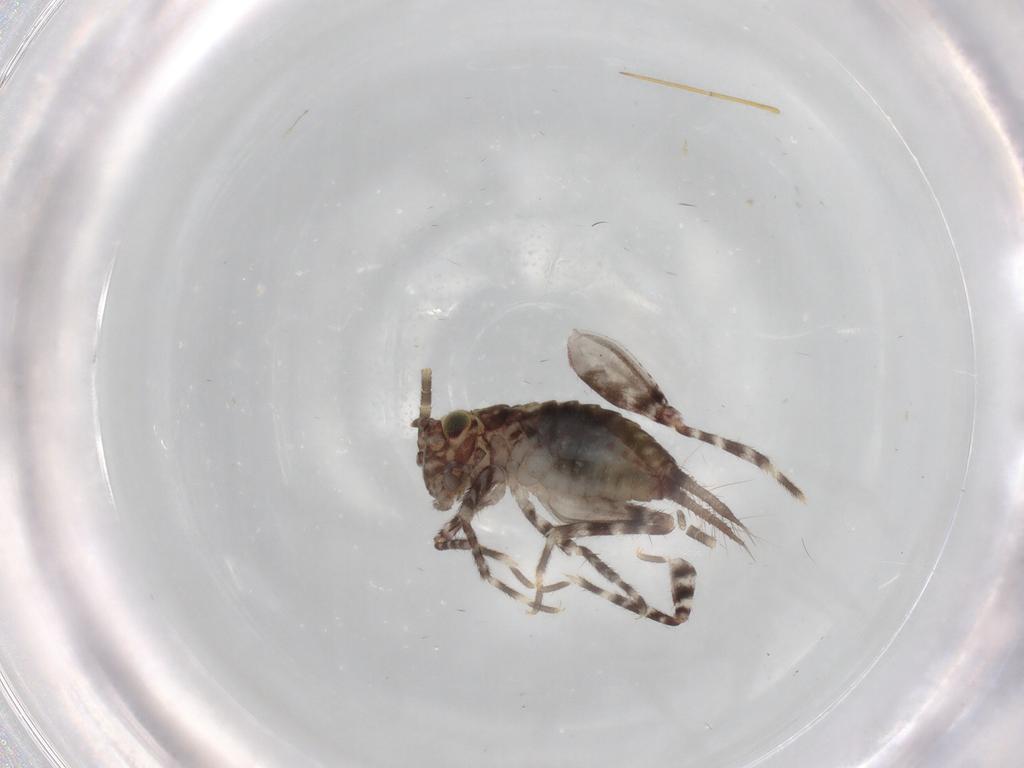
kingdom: Animalia
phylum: Arthropoda
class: Insecta
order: Orthoptera
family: Gryllidae
